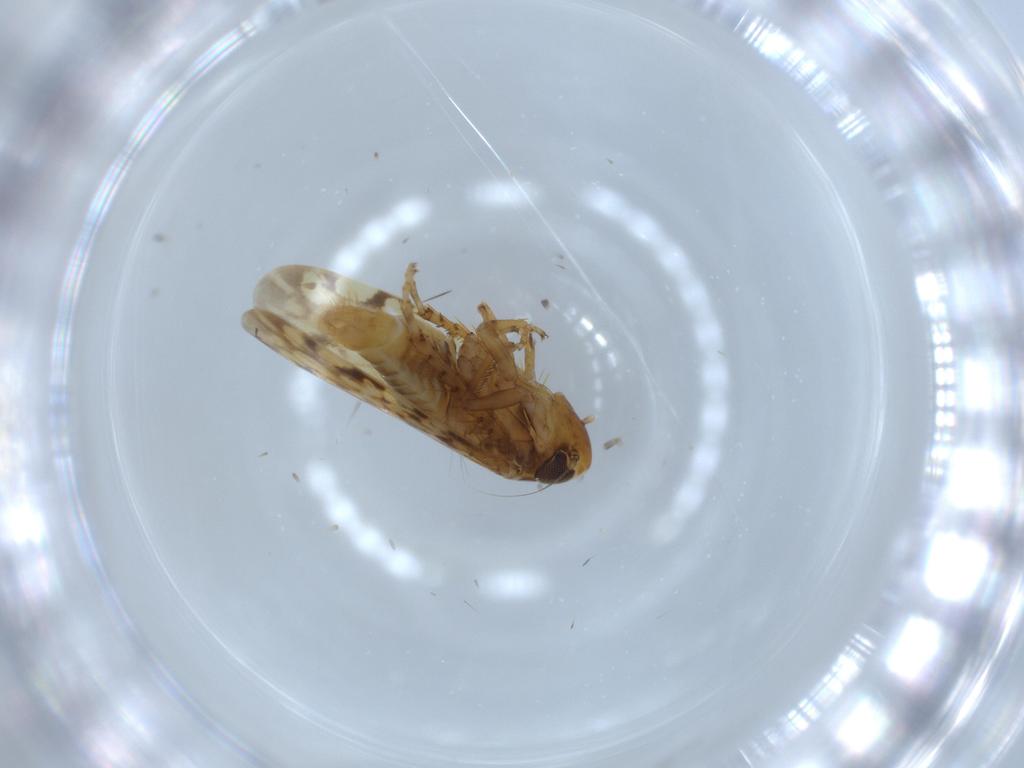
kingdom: Animalia
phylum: Arthropoda
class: Insecta
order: Hemiptera
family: Cicadellidae
